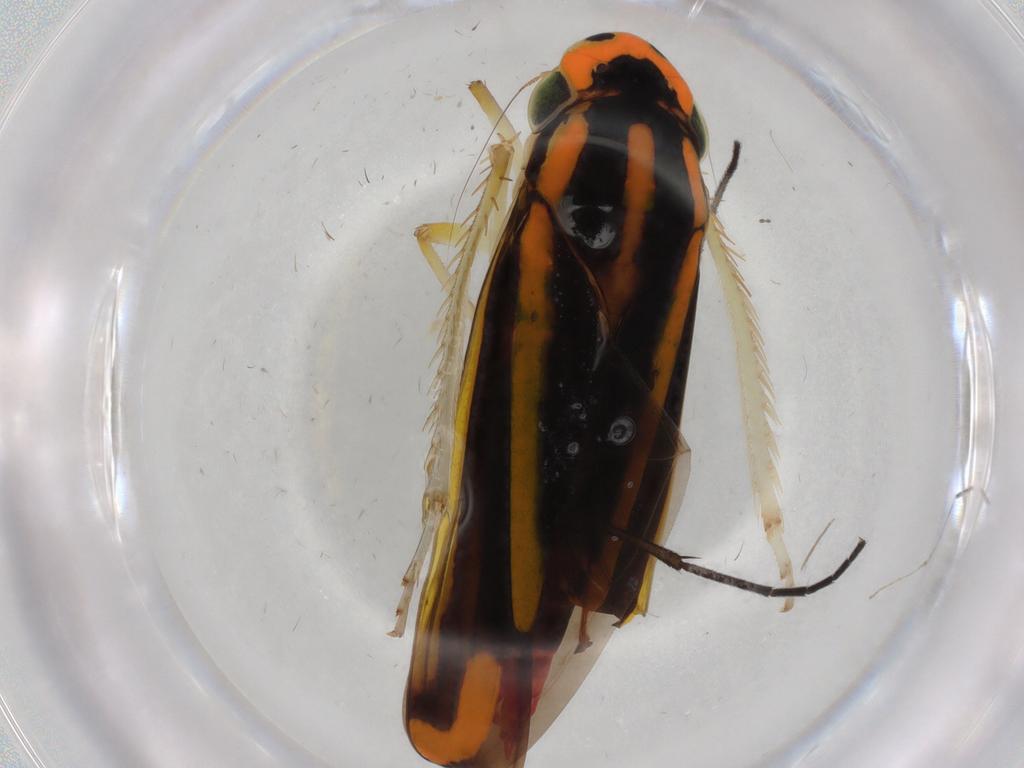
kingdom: Animalia
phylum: Arthropoda
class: Insecta
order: Hemiptera
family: Cicadellidae
